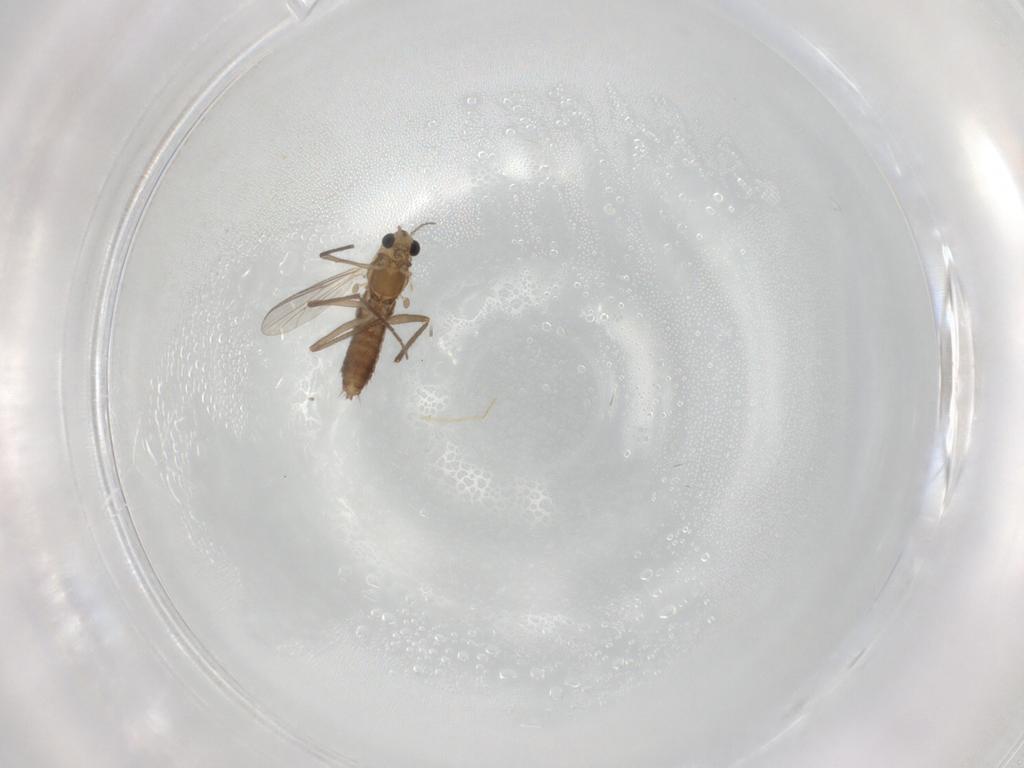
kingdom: Animalia
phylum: Arthropoda
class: Insecta
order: Diptera
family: Chironomidae
